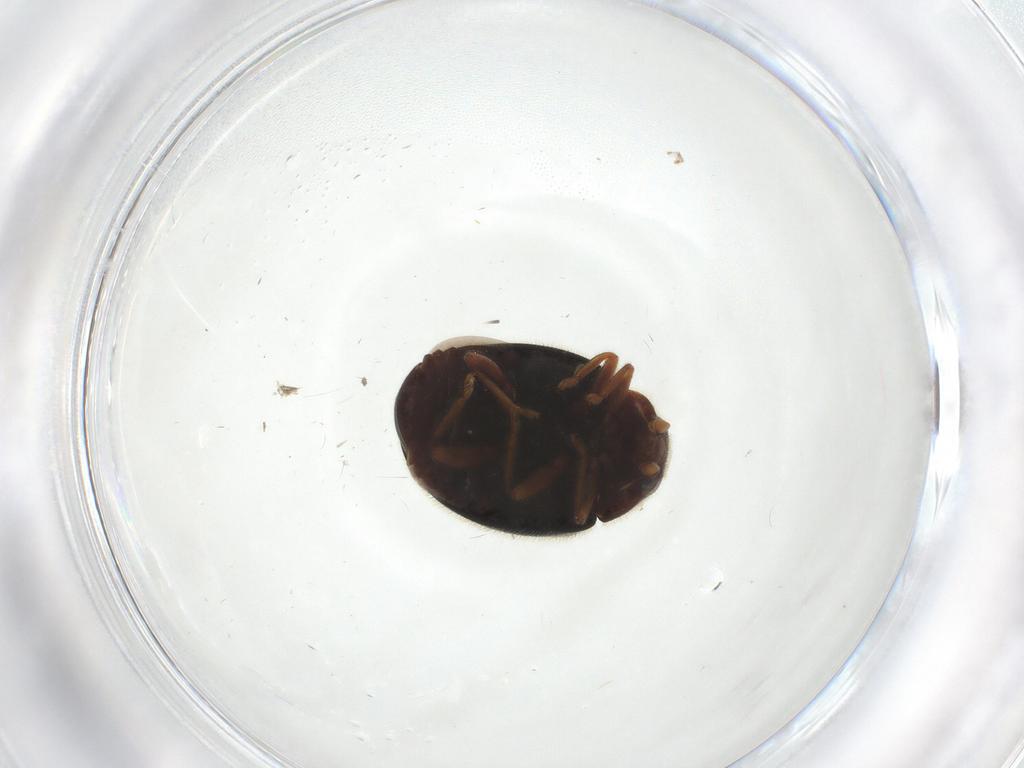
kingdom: Animalia
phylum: Arthropoda
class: Insecta
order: Coleoptera
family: Coccinellidae
